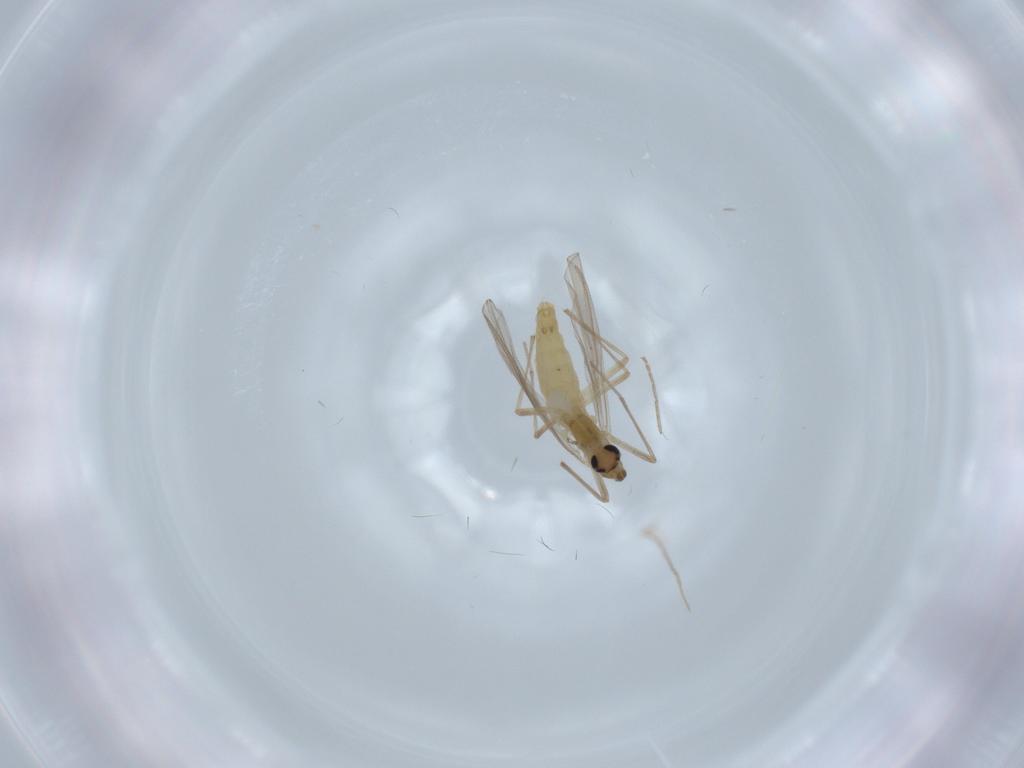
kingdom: Animalia
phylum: Arthropoda
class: Insecta
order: Diptera
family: Chironomidae
